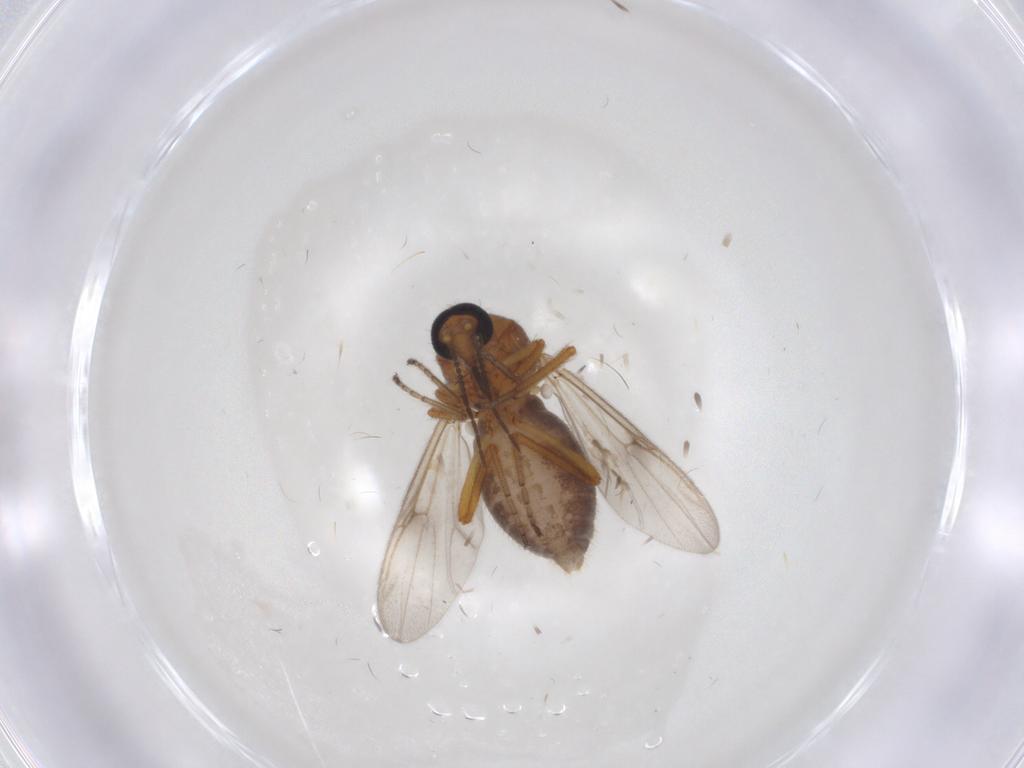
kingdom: Animalia
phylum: Arthropoda
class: Insecta
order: Diptera
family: Ceratopogonidae
